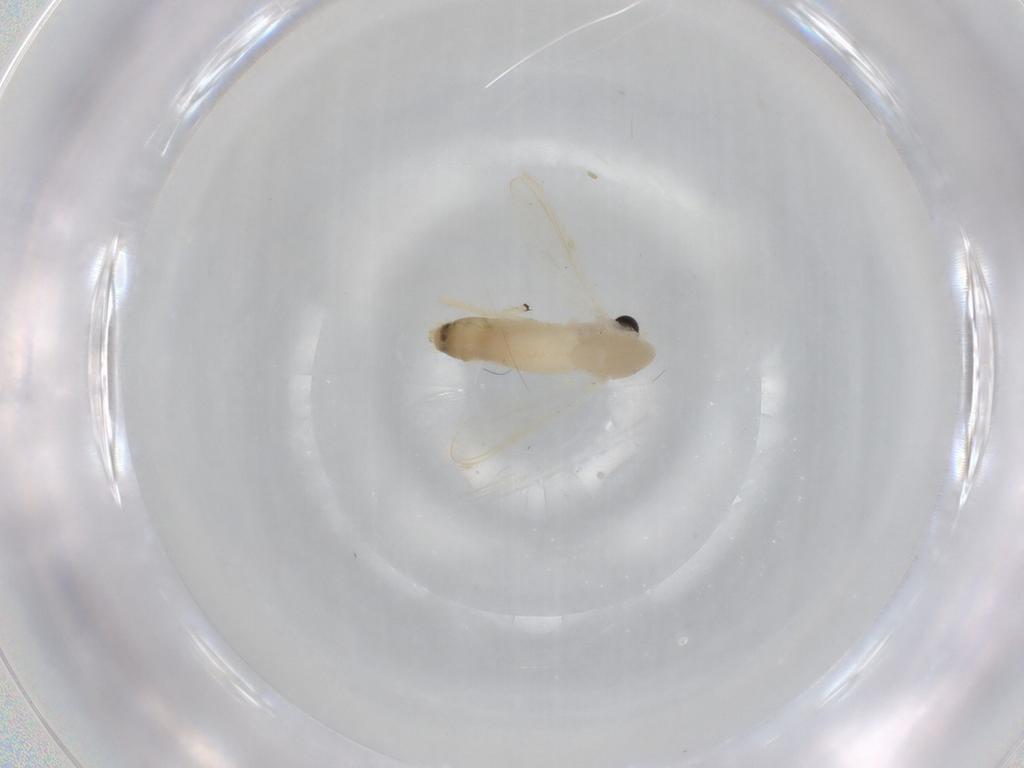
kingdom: Animalia
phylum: Arthropoda
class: Insecta
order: Diptera
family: Chironomidae
